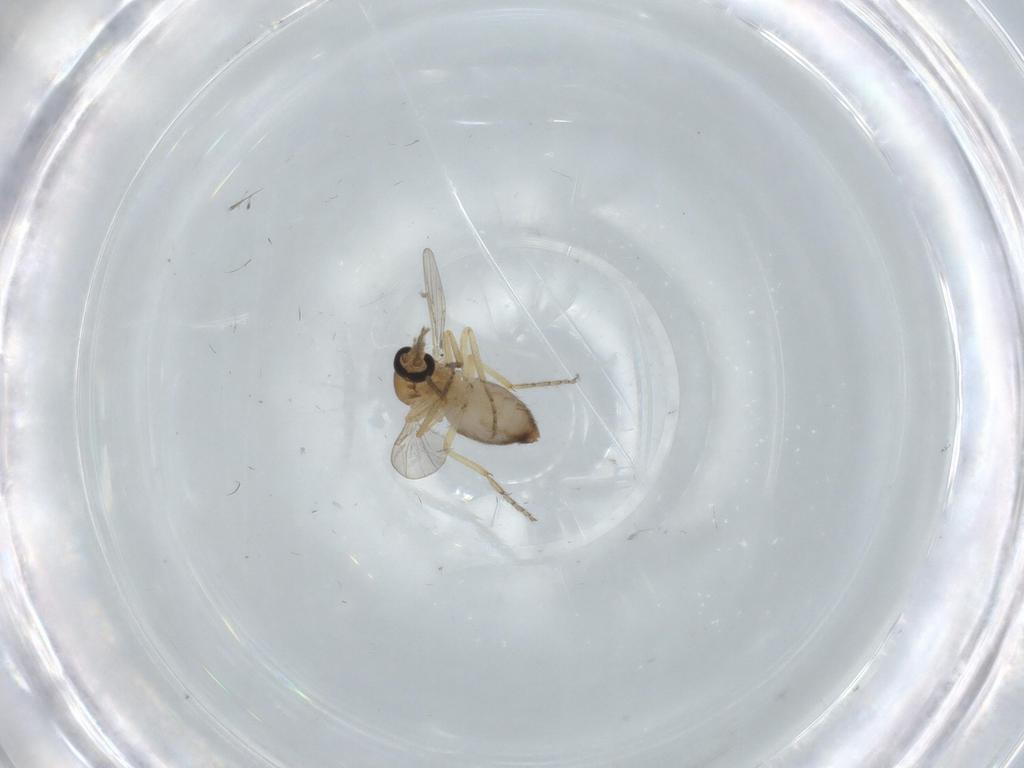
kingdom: Animalia
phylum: Arthropoda
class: Insecta
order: Diptera
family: Ceratopogonidae
